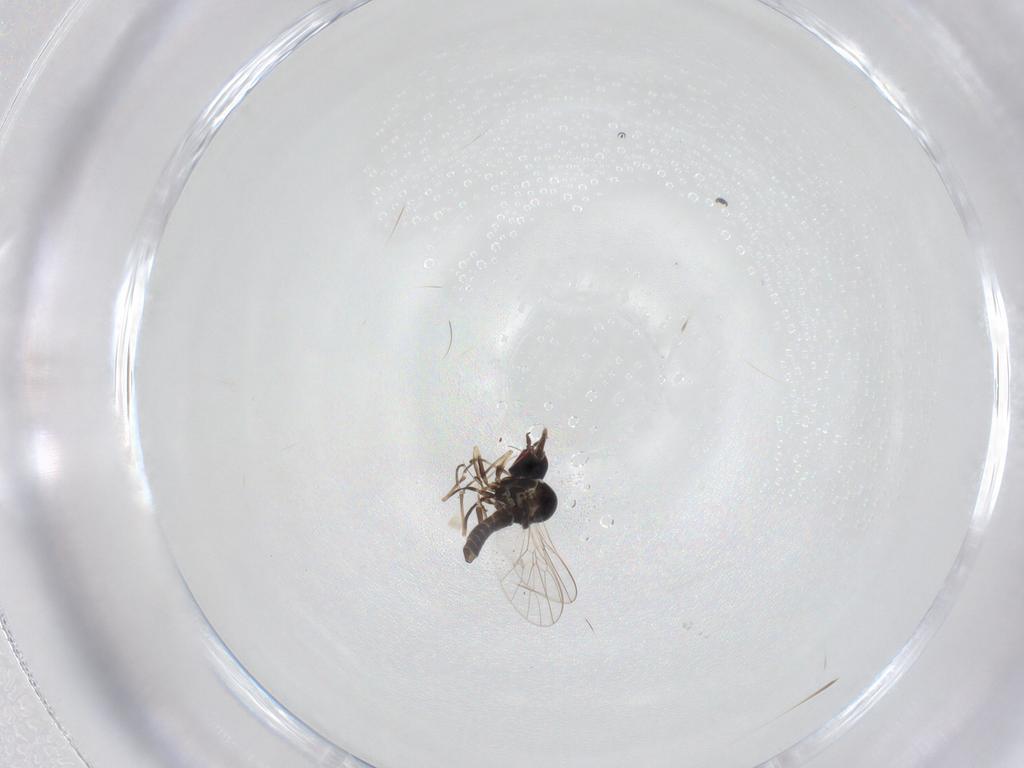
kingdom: Animalia
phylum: Arthropoda
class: Insecta
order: Diptera
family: Mythicomyiidae
